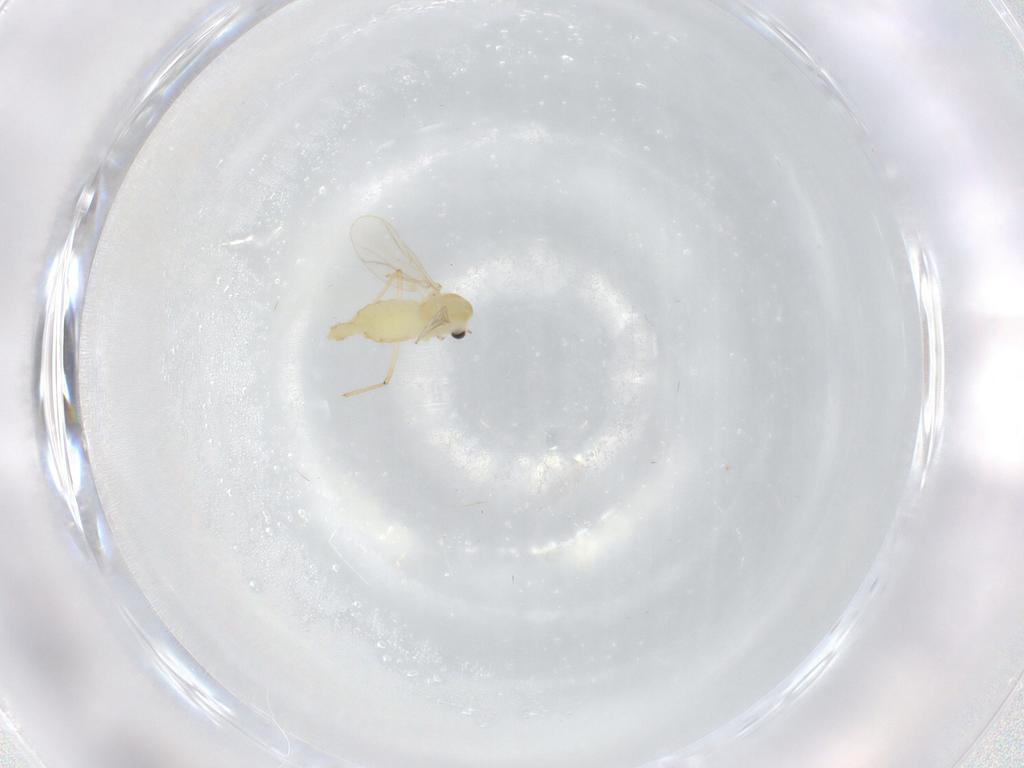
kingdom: Animalia
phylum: Arthropoda
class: Insecta
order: Diptera
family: Chironomidae
